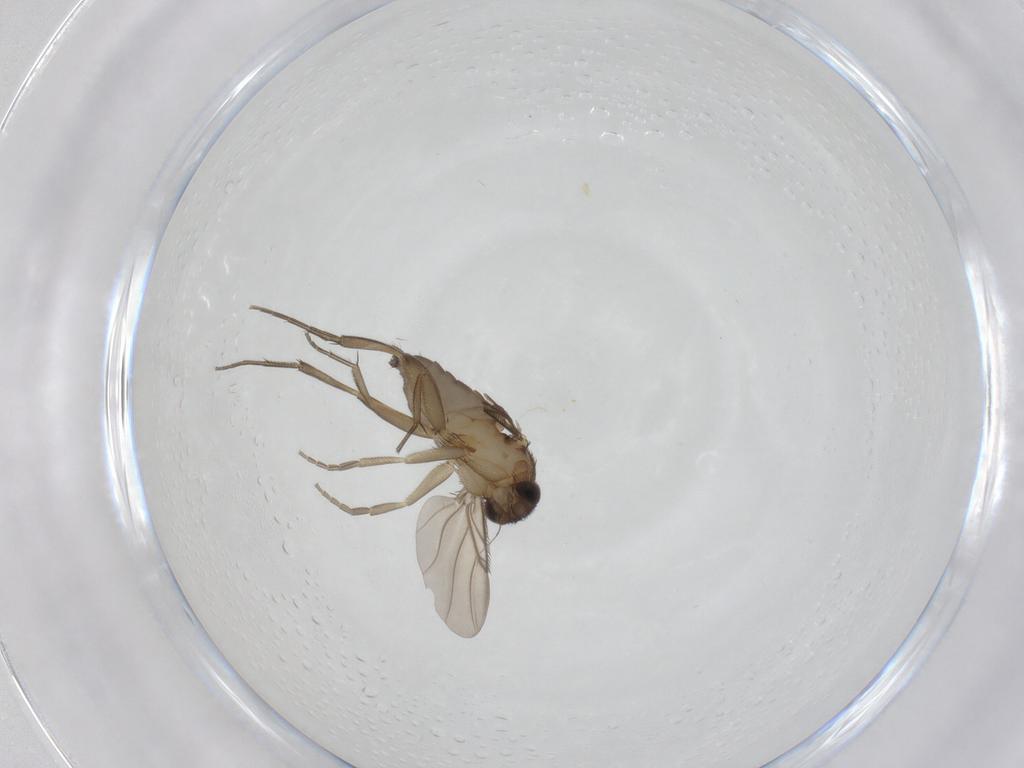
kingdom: Animalia
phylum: Arthropoda
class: Insecta
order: Diptera
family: Phoridae
